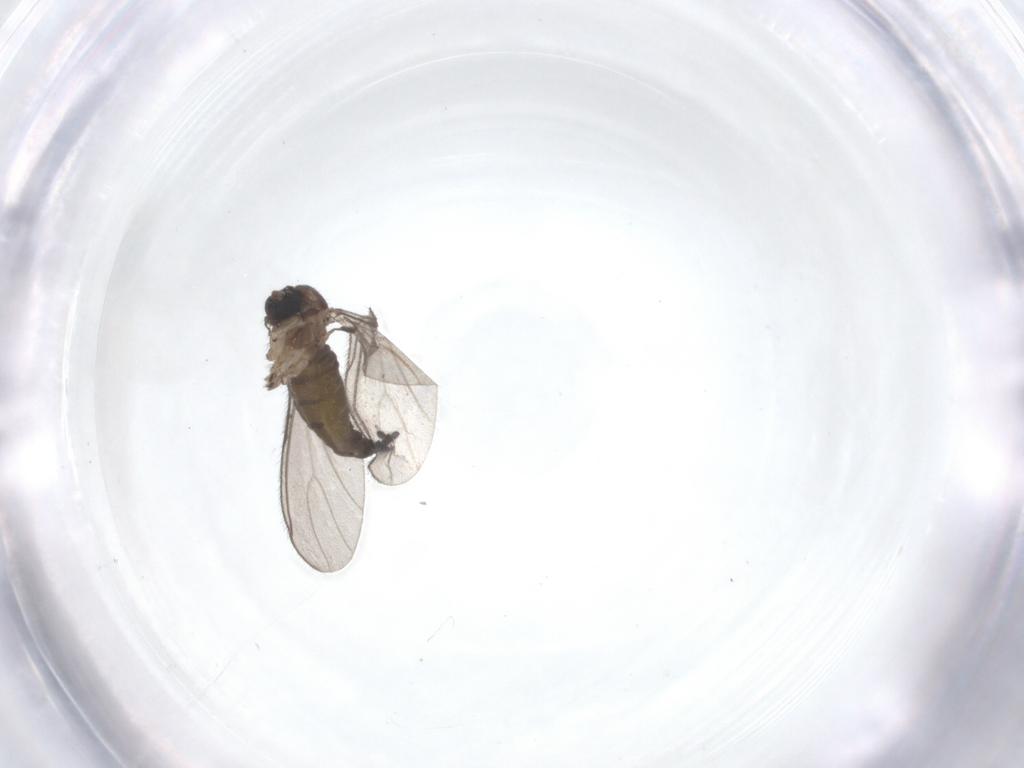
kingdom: Animalia
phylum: Arthropoda
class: Insecta
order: Diptera
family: Sciaridae
